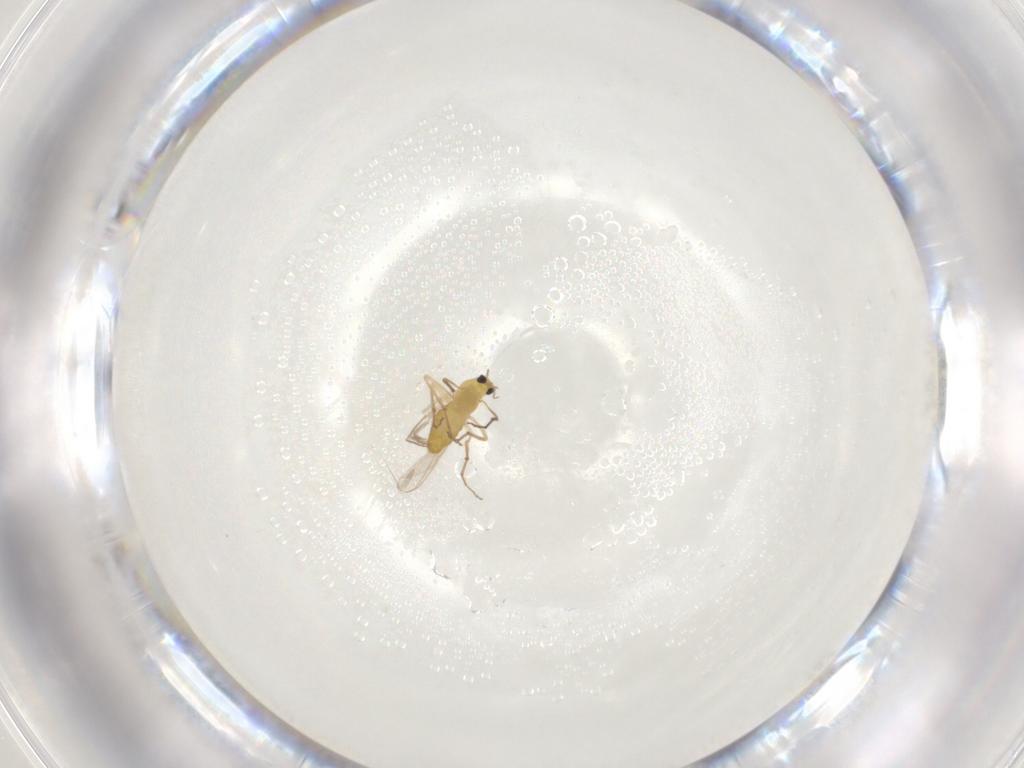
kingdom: Animalia
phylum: Arthropoda
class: Insecta
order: Diptera
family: Chironomidae
